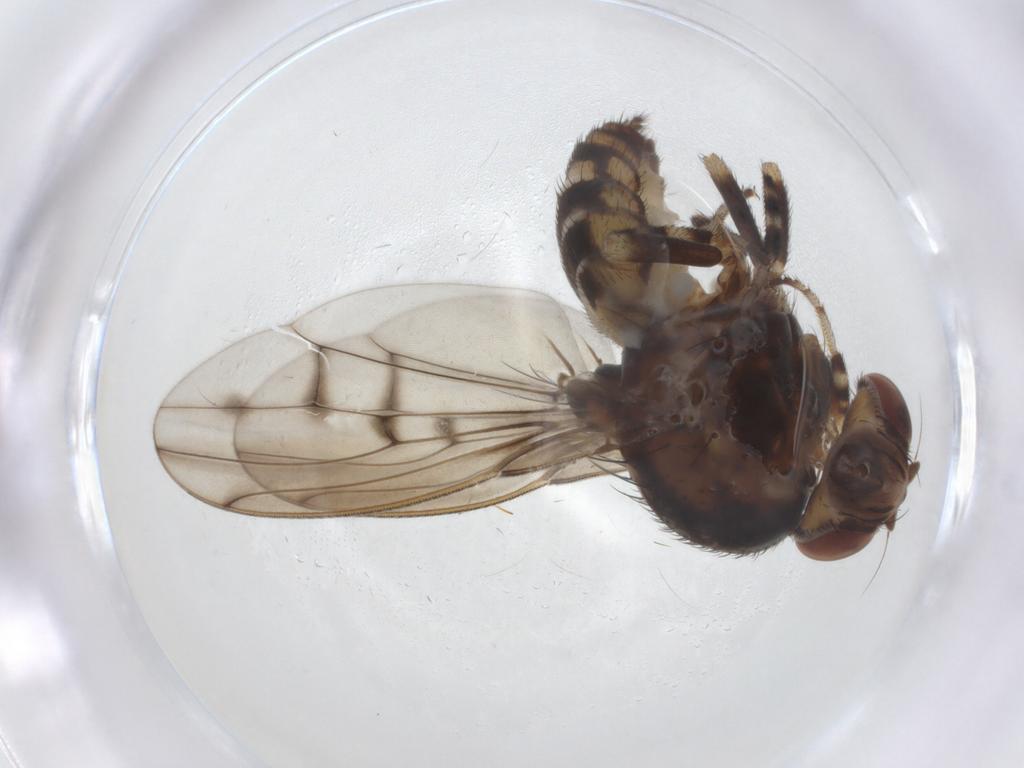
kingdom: Animalia
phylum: Arthropoda
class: Insecta
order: Diptera
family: Drosophilidae
